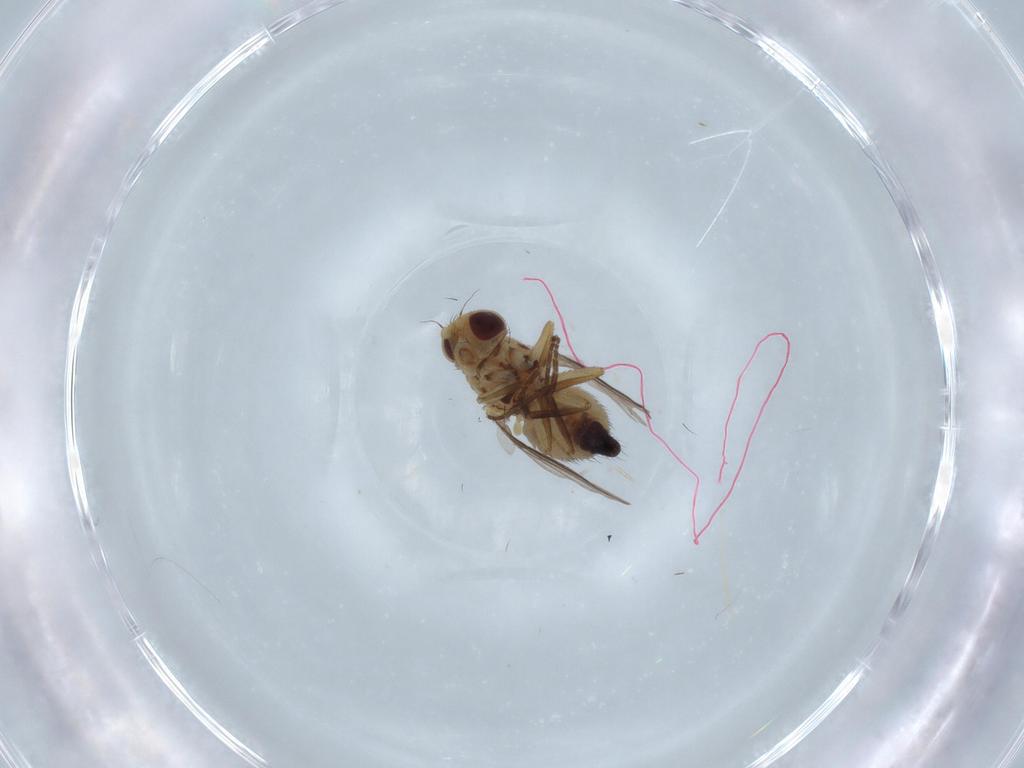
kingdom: Animalia
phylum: Arthropoda
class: Insecta
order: Diptera
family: Agromyzidae
